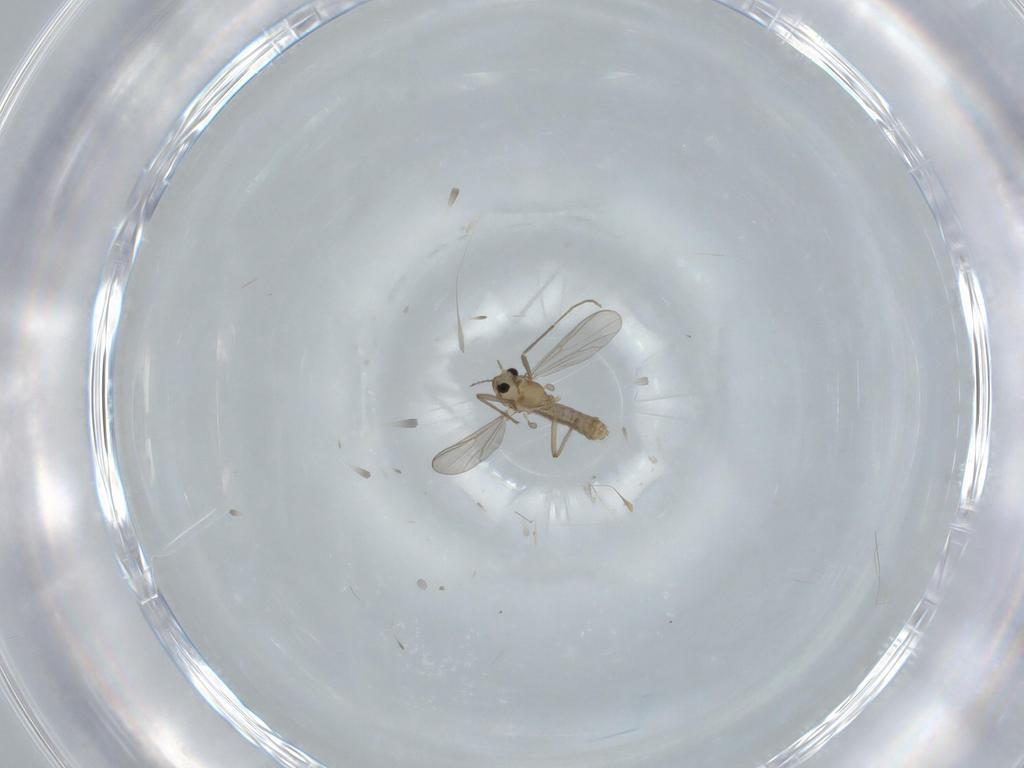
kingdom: Animalia
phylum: Arthropoda
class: Insecta
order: Diptera
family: Chironomidae
